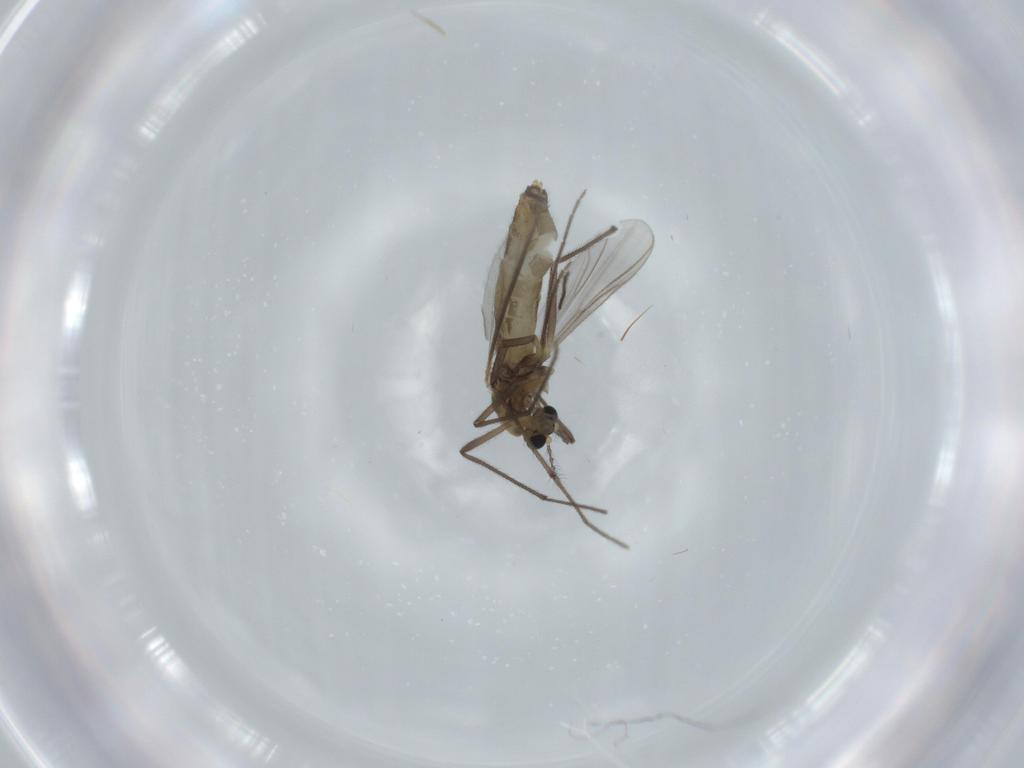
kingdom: Animalia
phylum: Arthropoda
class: Insecta
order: Diptera
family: Chironomidae
